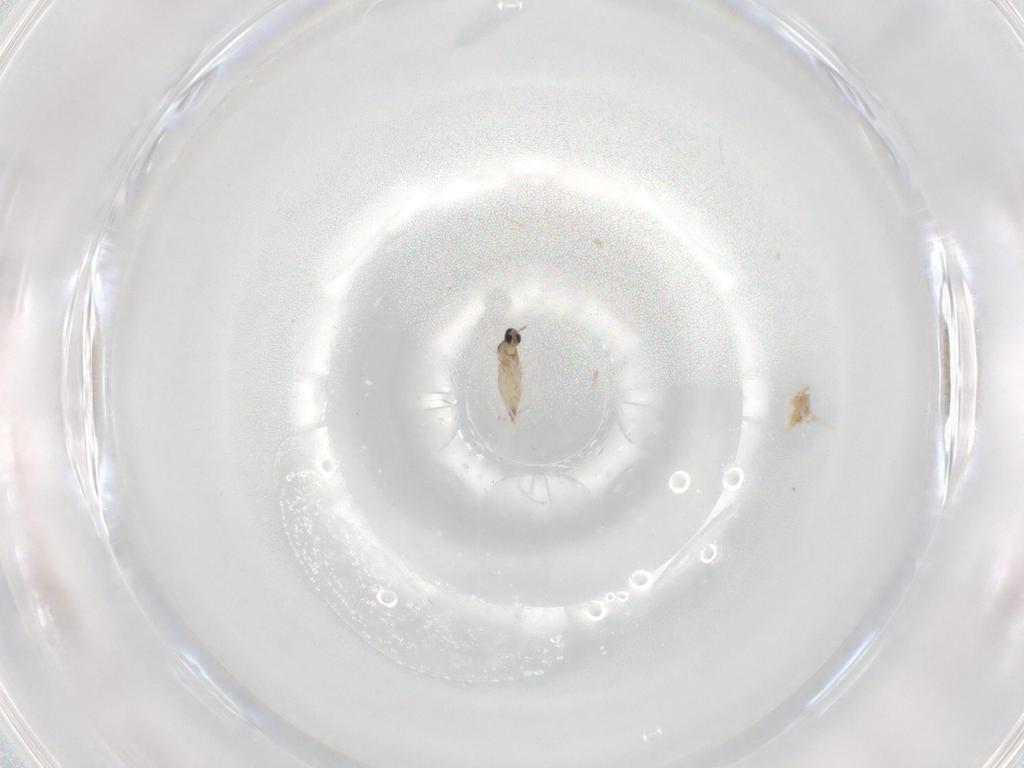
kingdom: Animalia
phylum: Arthropoda
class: Insecta
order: Diptera
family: Cecidomyiidae
